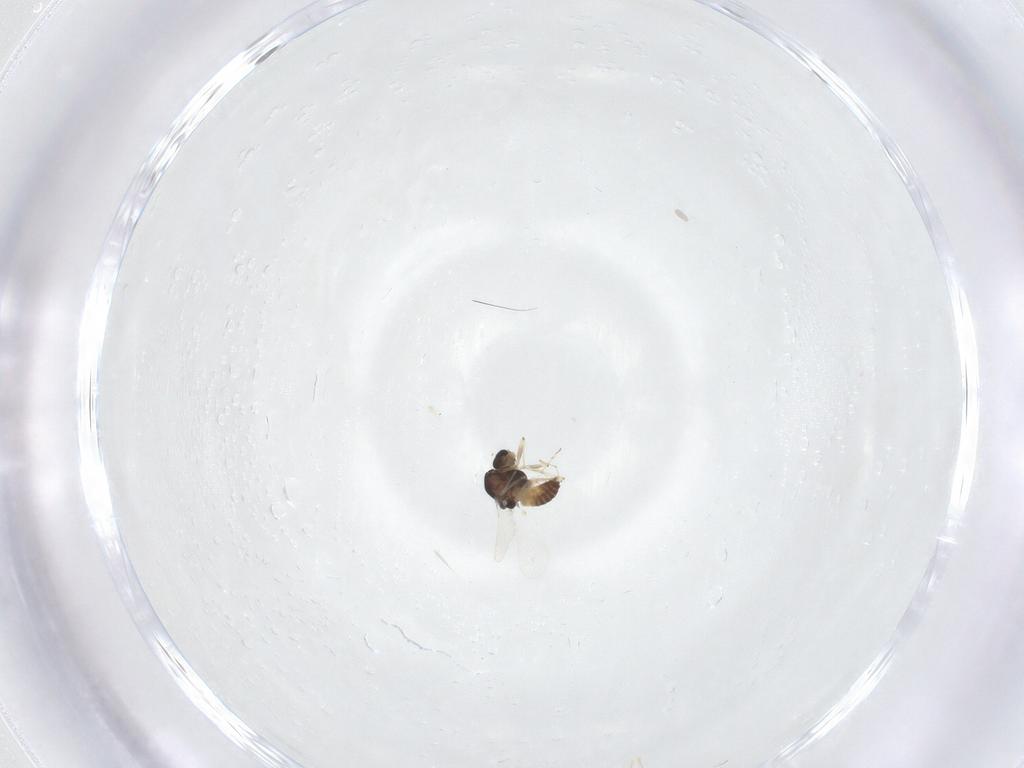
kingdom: Animalia
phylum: Arthropoda
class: Insecta
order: Diptera
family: Chironomidae
